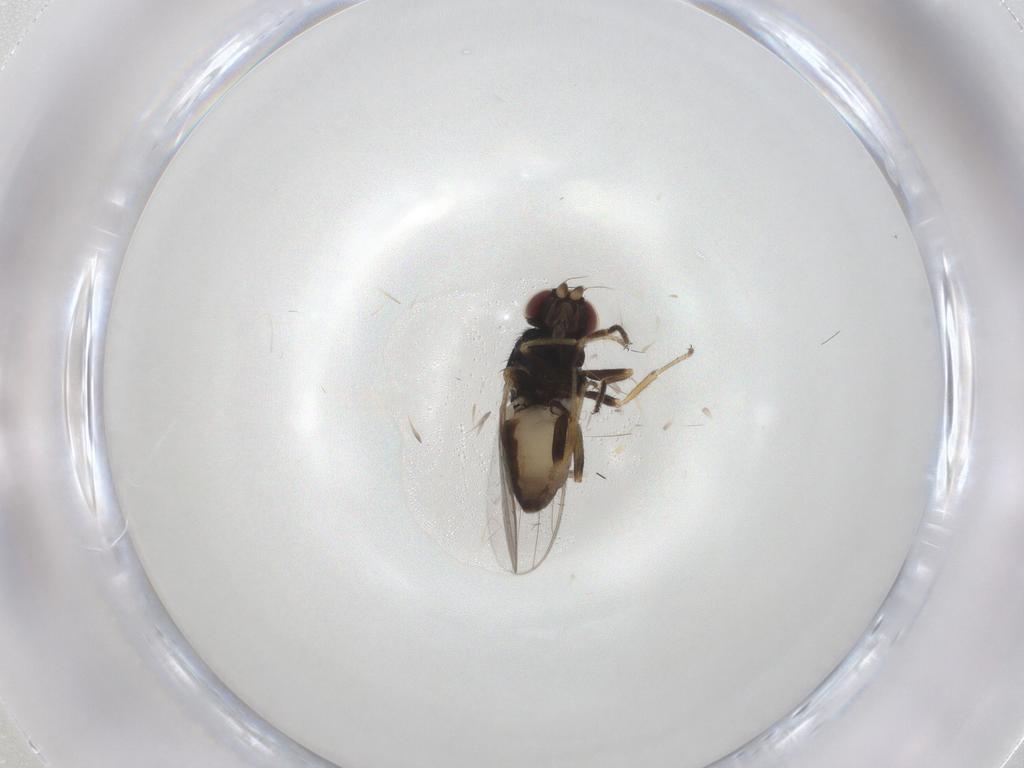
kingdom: Animalia
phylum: Arthropoda
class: Insecta
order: Diptera
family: Chloropidae
